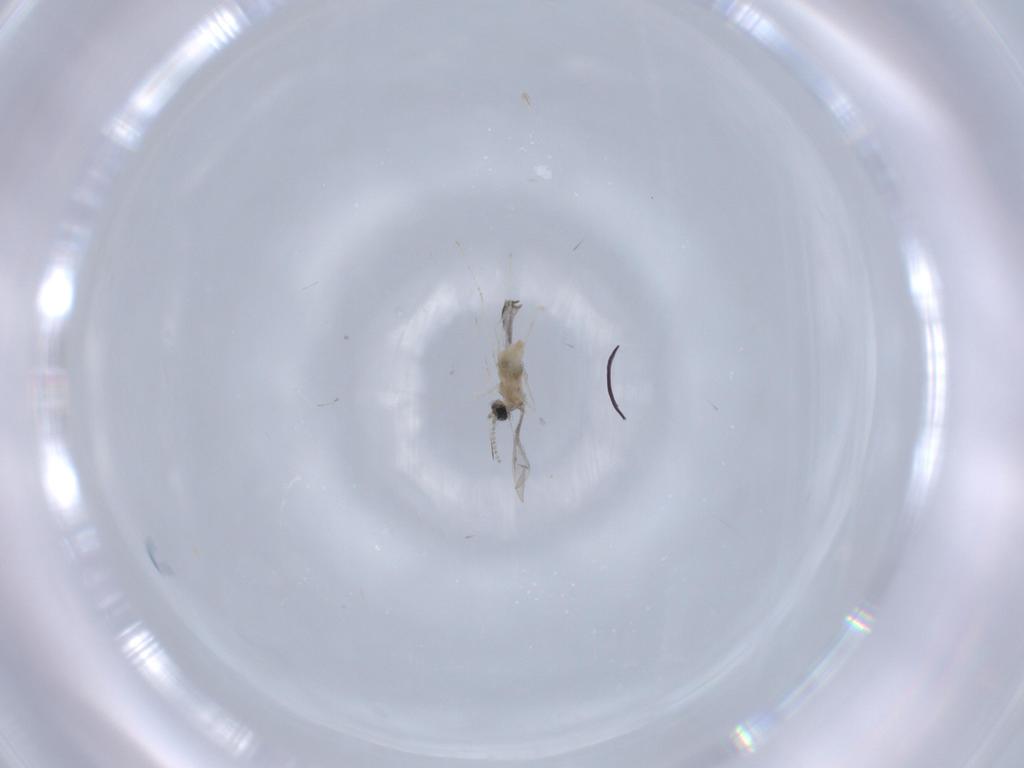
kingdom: Animalia
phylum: Arthropoda
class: Insecta
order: Diptera
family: Cecidomyiidae
